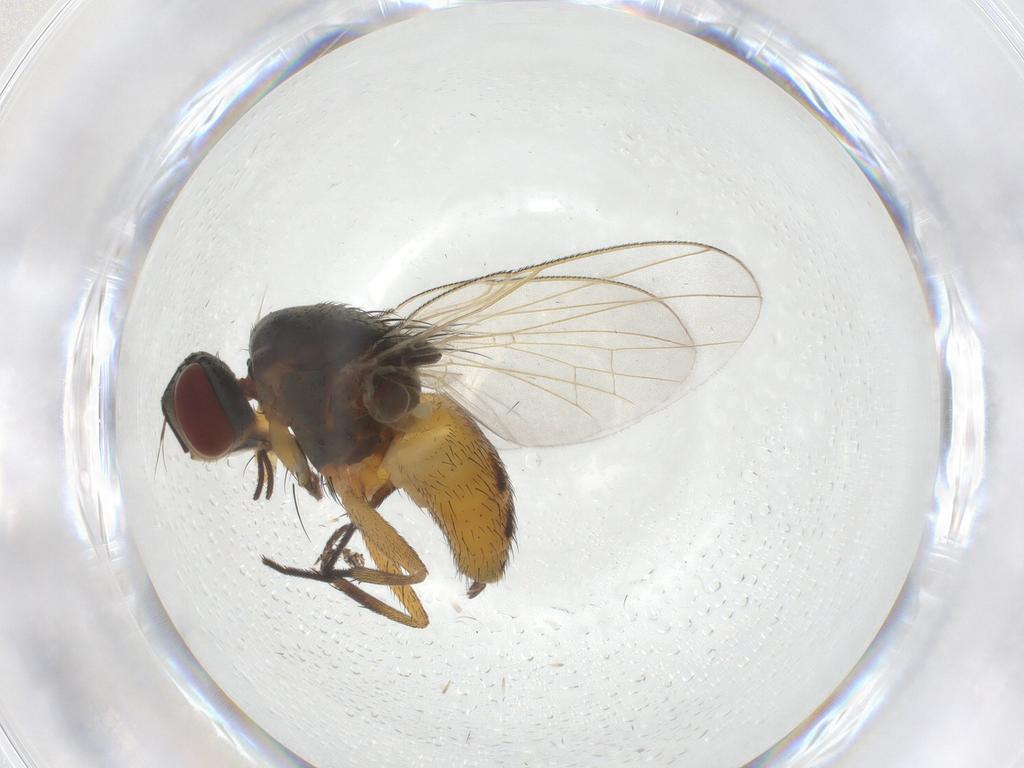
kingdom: Animalia
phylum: Arthropoda
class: Insecta
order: Diptera
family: Muscidae
